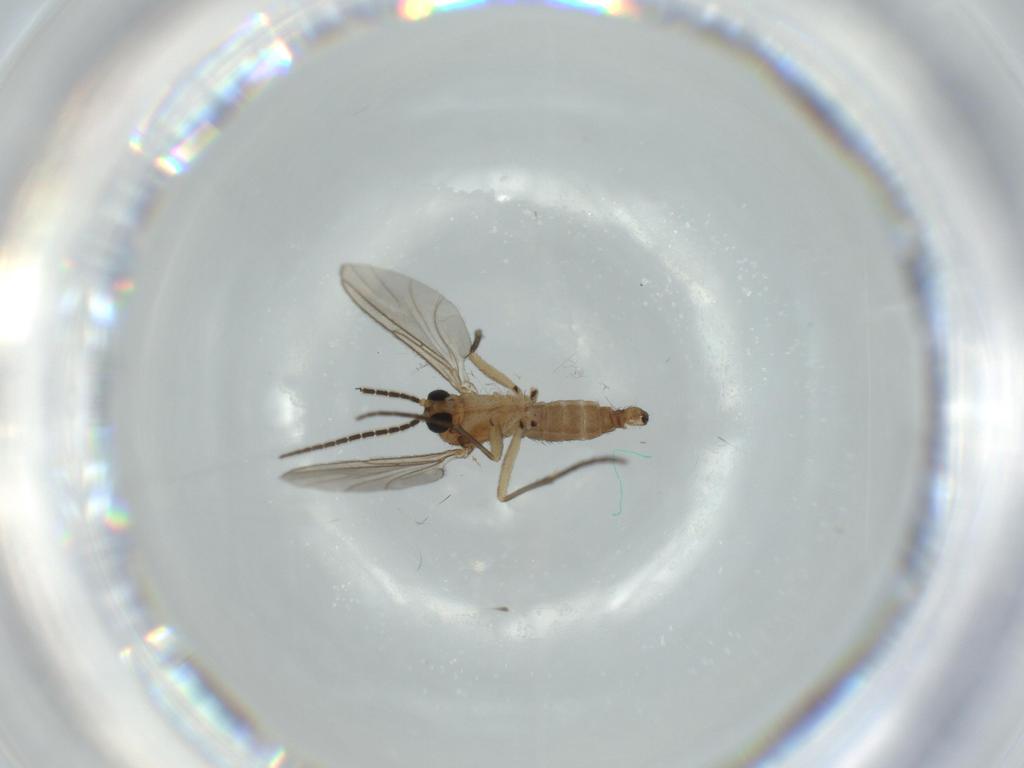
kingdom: Animalia
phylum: Arthropoda
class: Insecta
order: Diptera
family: Sciaridae
